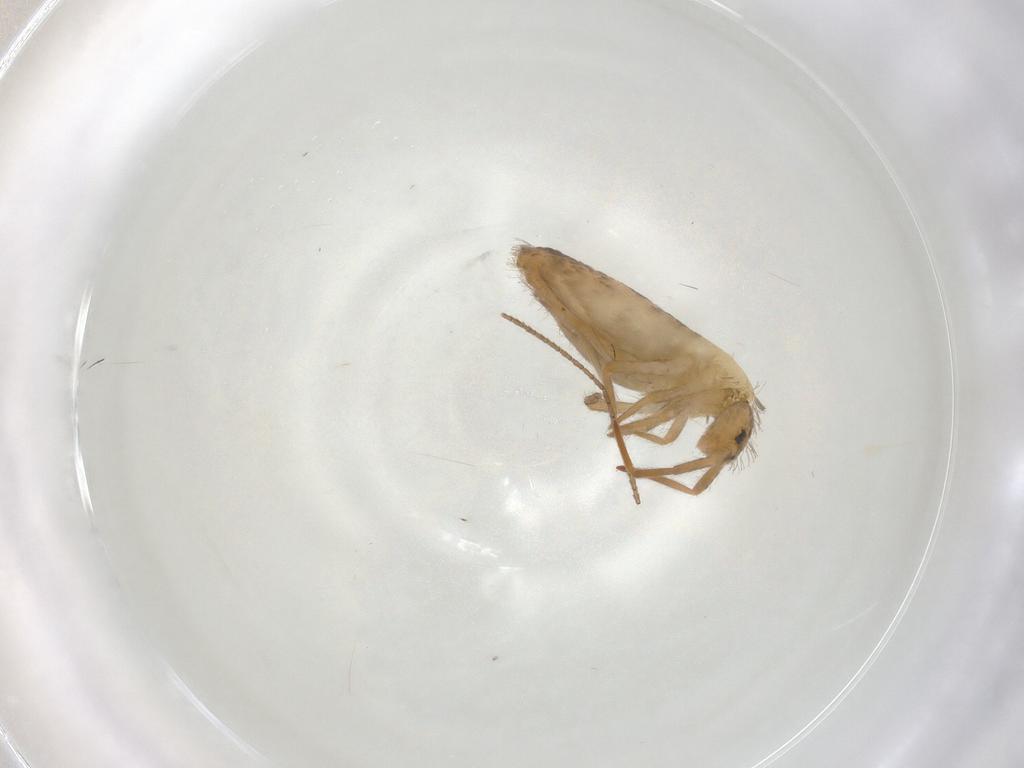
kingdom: Animalia
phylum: Arthropoda
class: Collembola
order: Entomobryomorpha
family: Entomobryidae
